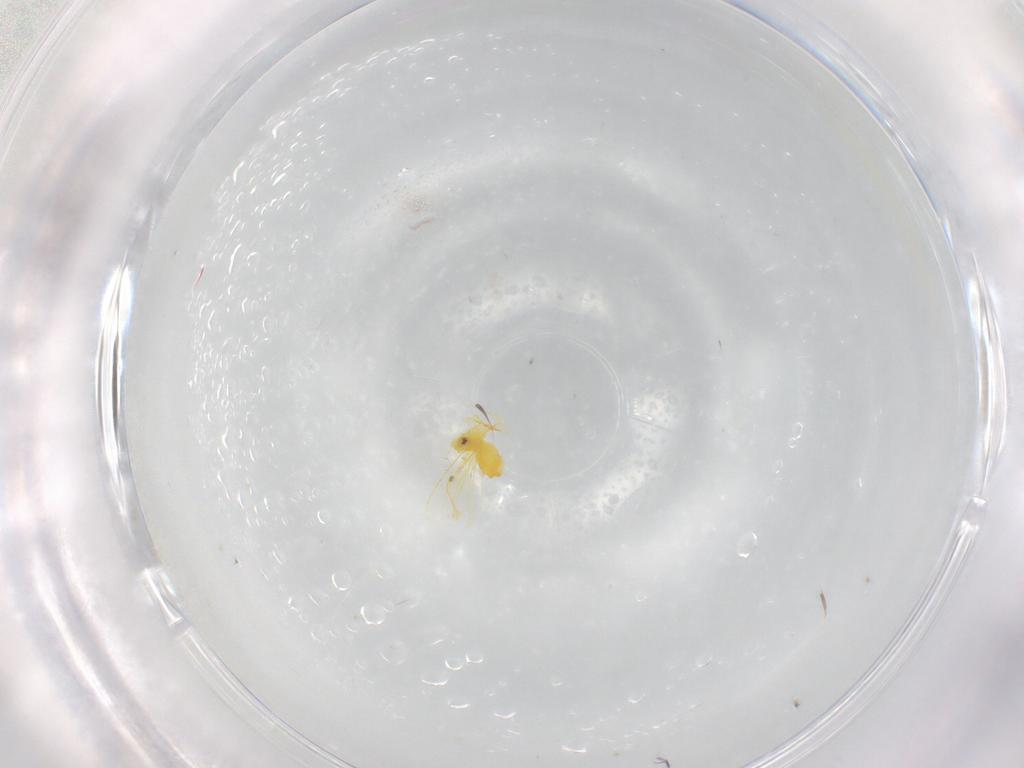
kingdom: Animalia
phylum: Arthropoda
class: Insecta
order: Hemiptera
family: Aleyrodidae
